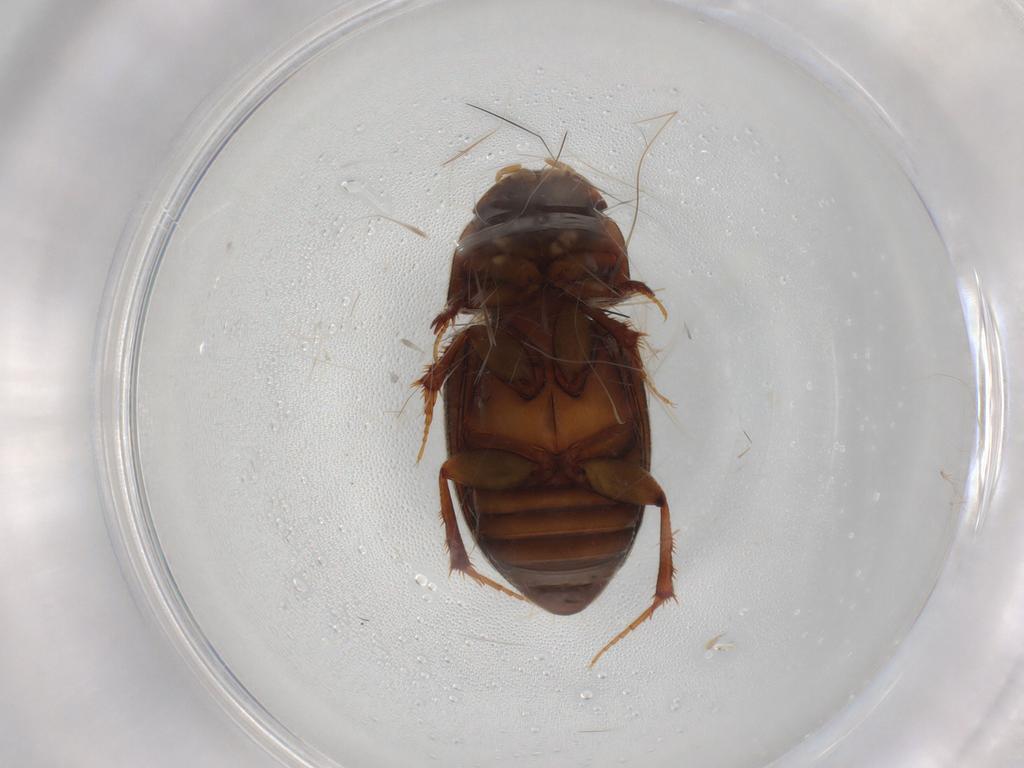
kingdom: Animalia
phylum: Arthropoda
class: Insecta
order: Coleoptera
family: Scarabaeidae
